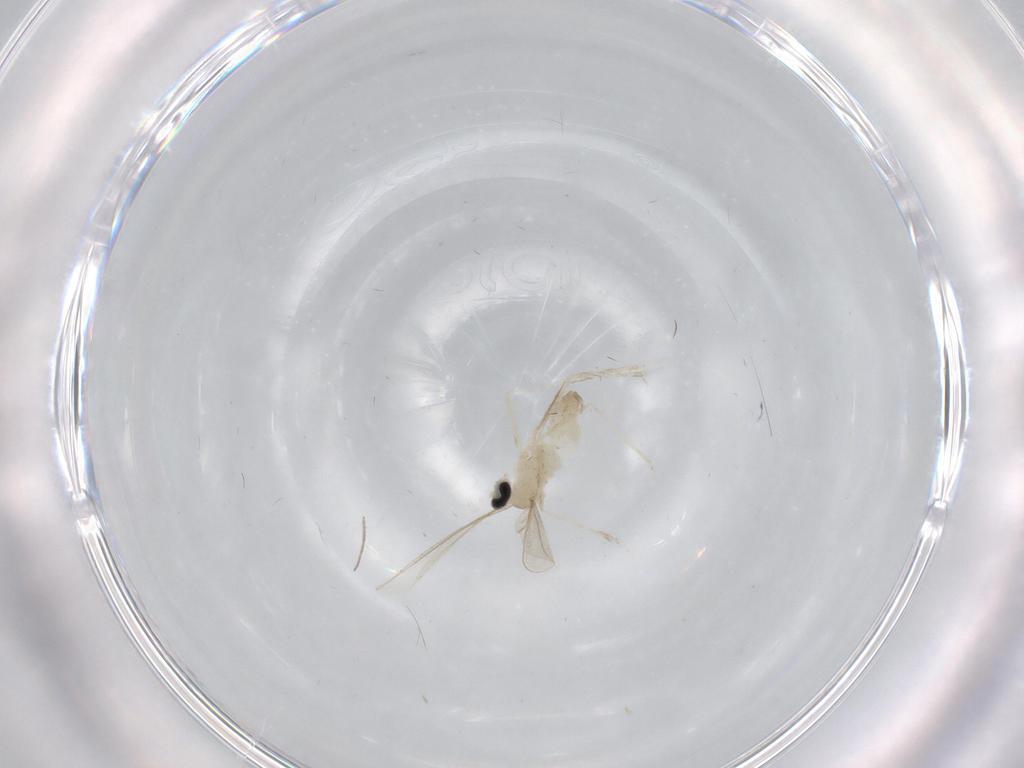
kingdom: Animalia
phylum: Arthropoda
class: Insecta
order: Diptera
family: Cecidomyiidae
